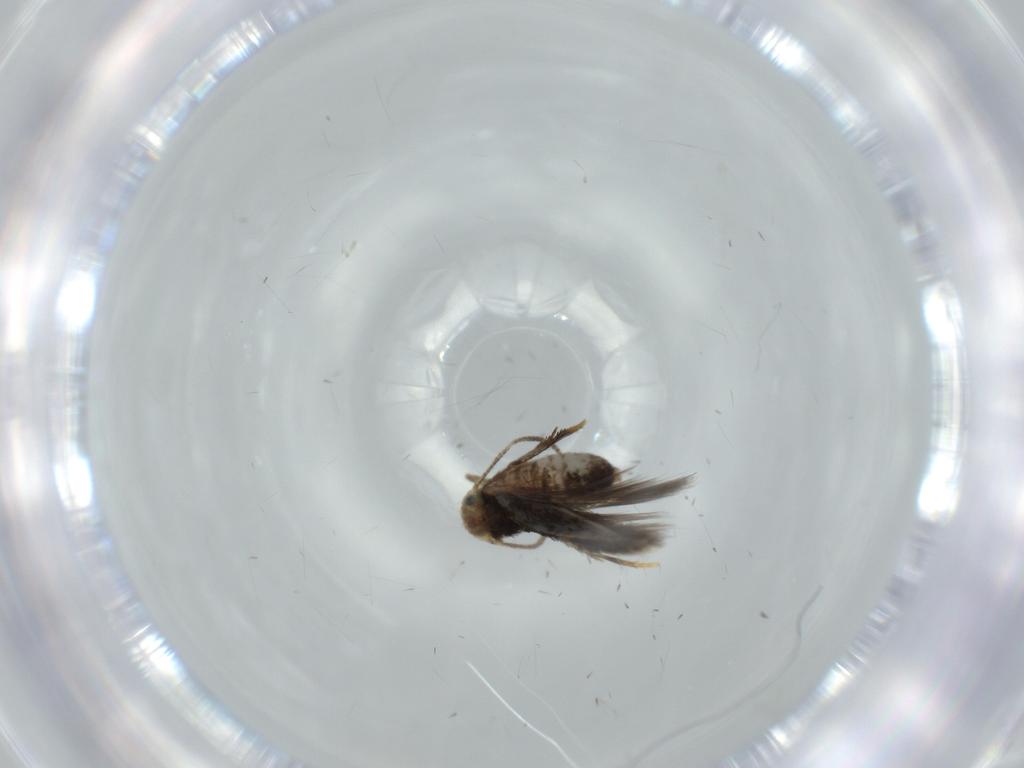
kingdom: Animalia
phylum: Arthropoda
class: Insecta
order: Lepidoptera
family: Nepticulidae
